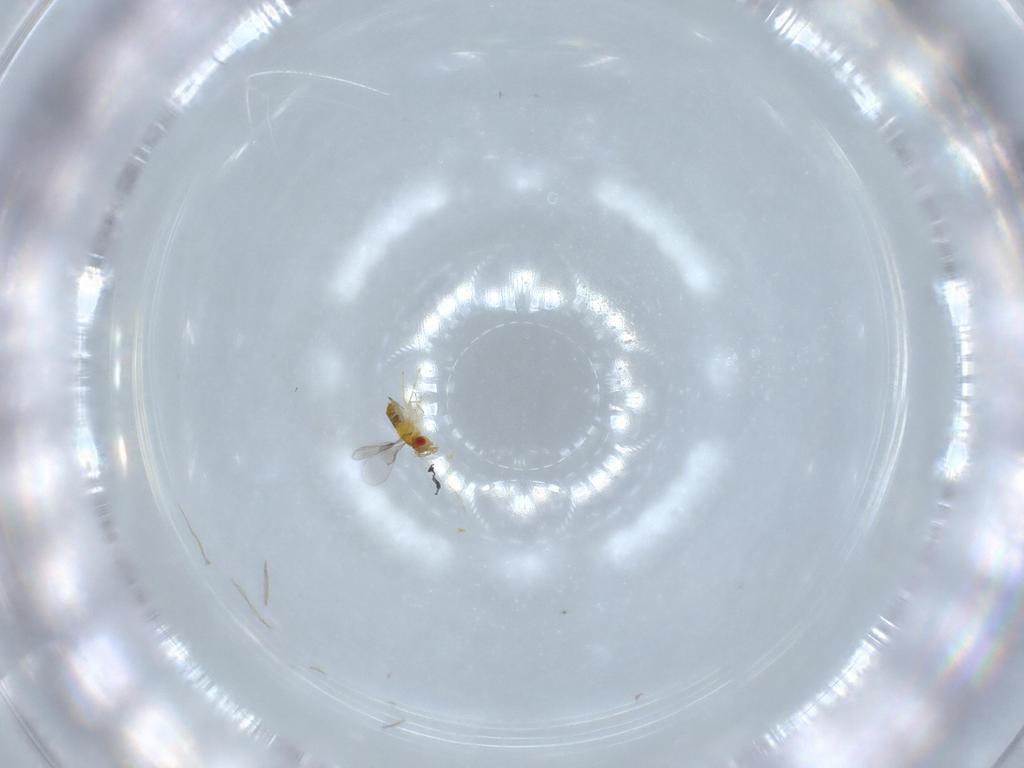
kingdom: Animalia
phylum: Arthropoda
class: Insecta
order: Hymenoptera
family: Trichogrammatidae
